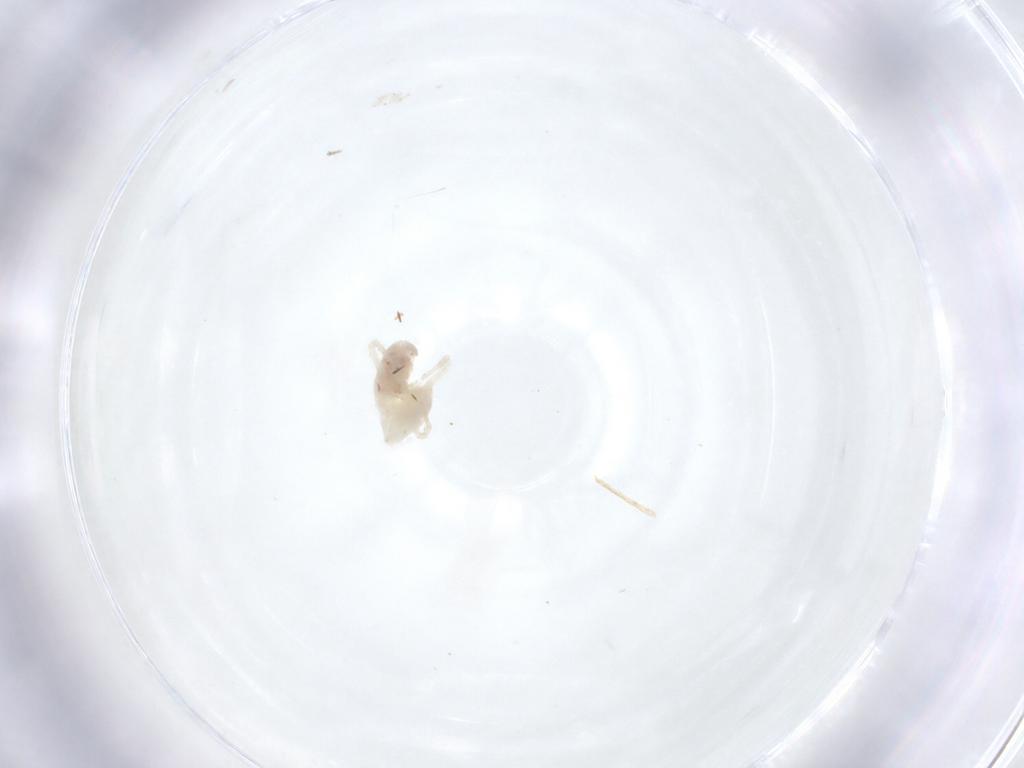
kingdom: Animalia
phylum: Arthropoda
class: Arachnida
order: Trombidiformes
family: Bdellidae
